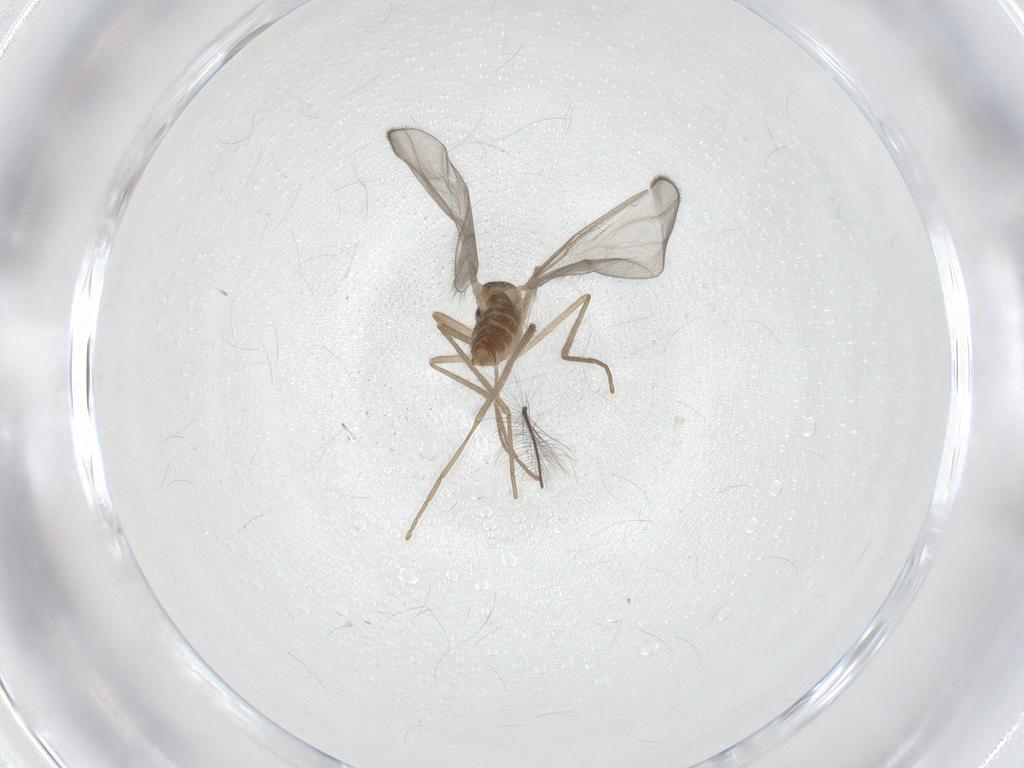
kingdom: Animalia
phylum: Arthropoda
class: Insecta
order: Diptera
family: Cecidomyiidae
